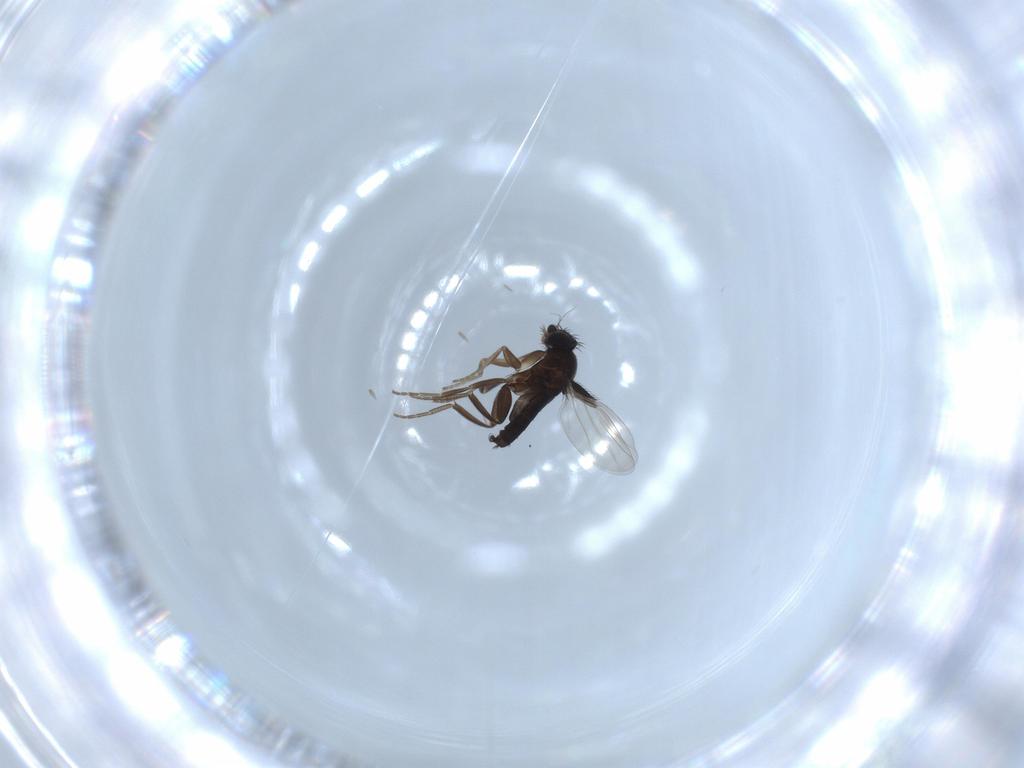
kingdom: Animalia
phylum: Arthropoda
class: Insecta
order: Diptera
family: Phoridae
